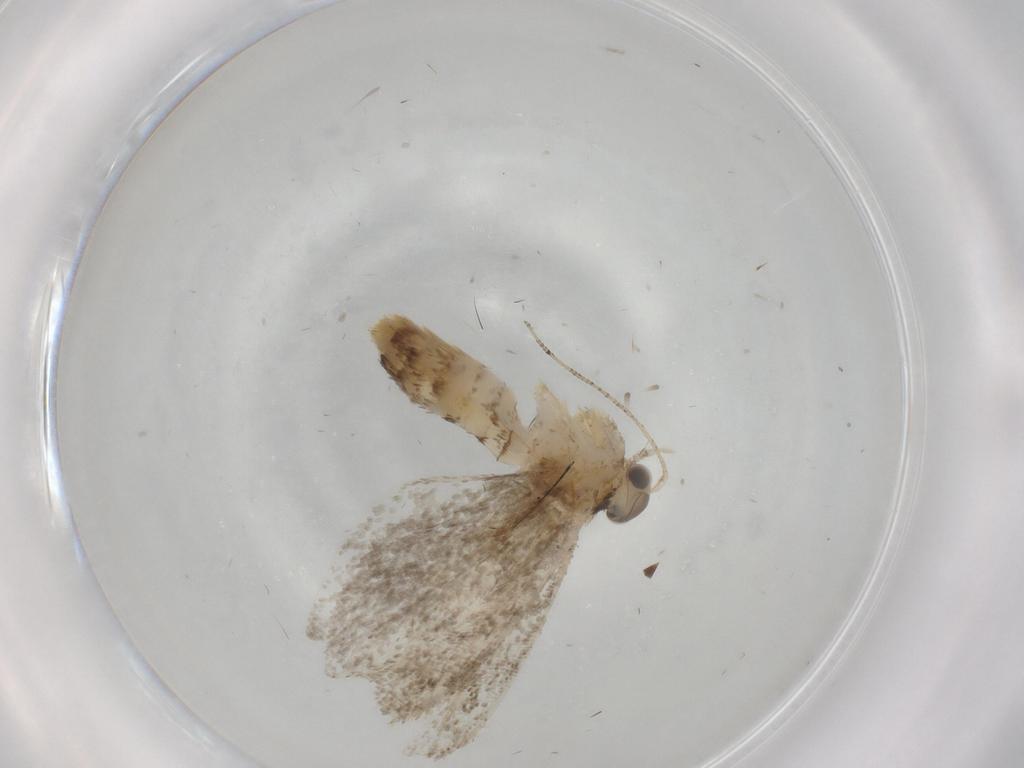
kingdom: Animalia
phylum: Arthropoda
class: Insecta
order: Lepidoptera
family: Tineidae
